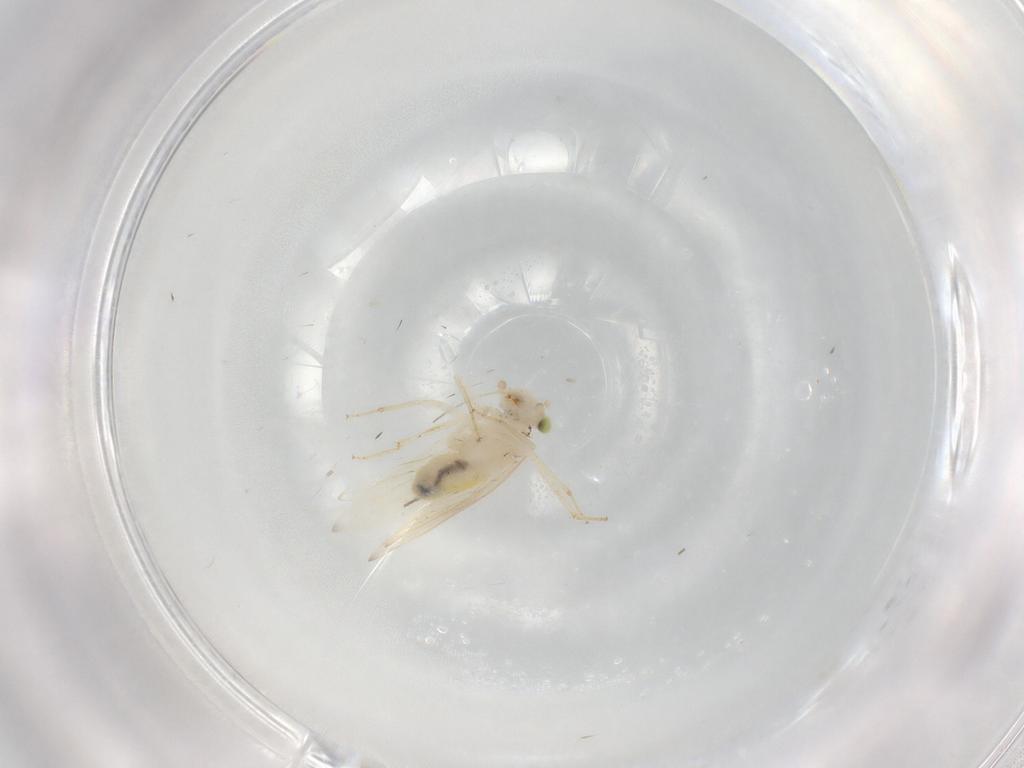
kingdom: Animalia
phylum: Arthropoda
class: Insecta
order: Psocodea
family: Lepidopsocidae
